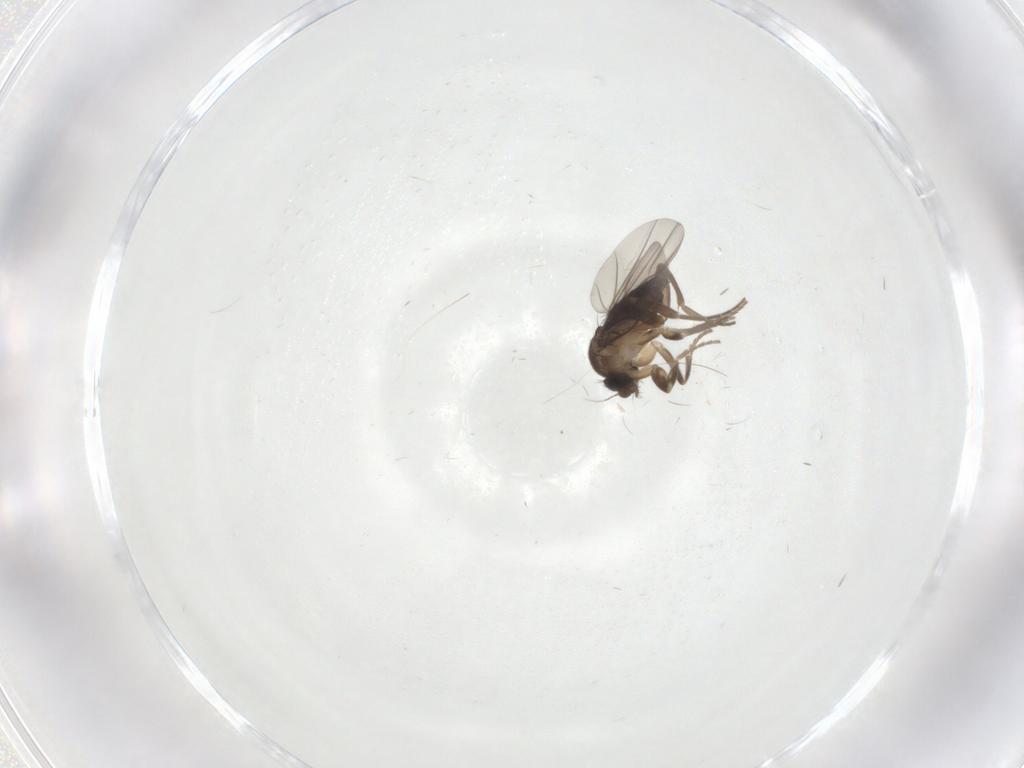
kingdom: Animalia
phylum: Arthropoda
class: Insecta
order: Diptera
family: Phoridae
